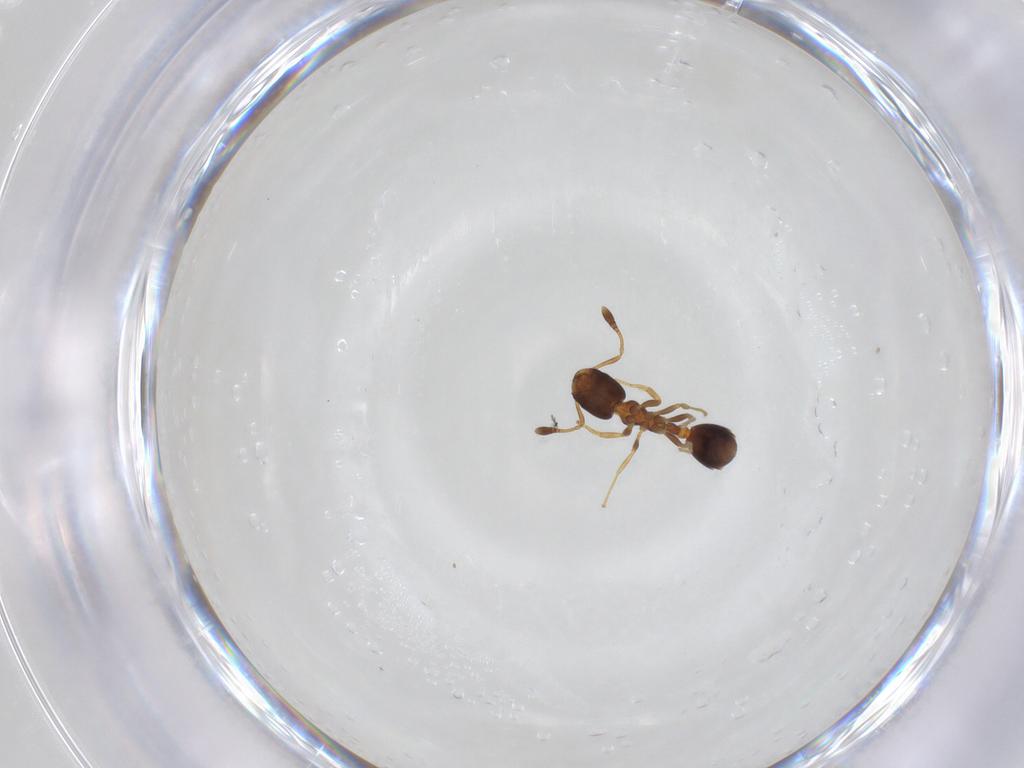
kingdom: Animalia
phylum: Arthropoda
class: Insecta
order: Hymenoptera
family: Formicidae
